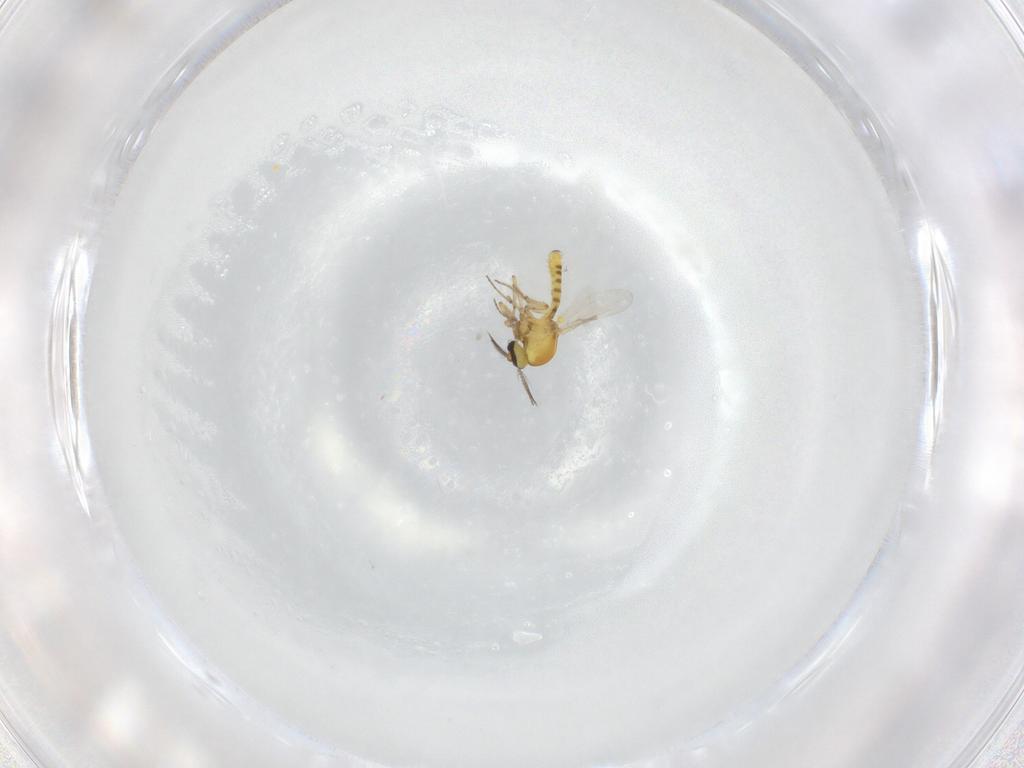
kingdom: Animalia
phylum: Arthropoda
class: Insecta
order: Diptera
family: Ceratopogonidae
